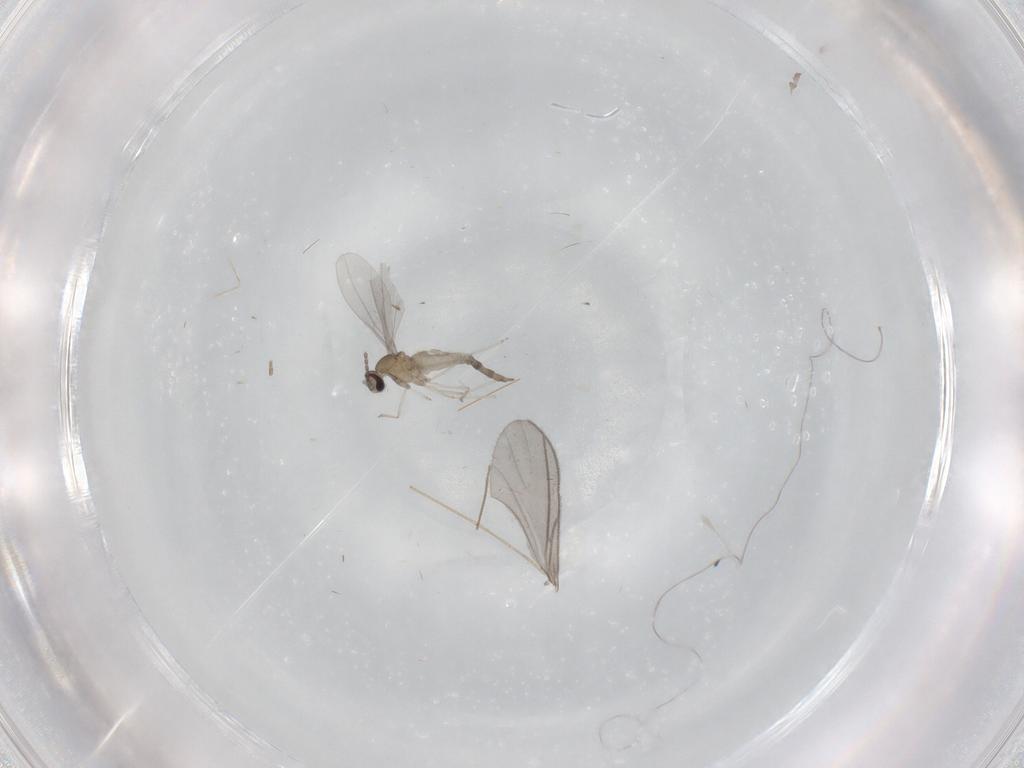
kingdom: Animalia
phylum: Arthropoda
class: Insecta
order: Diptera
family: Cecidomyiidae
